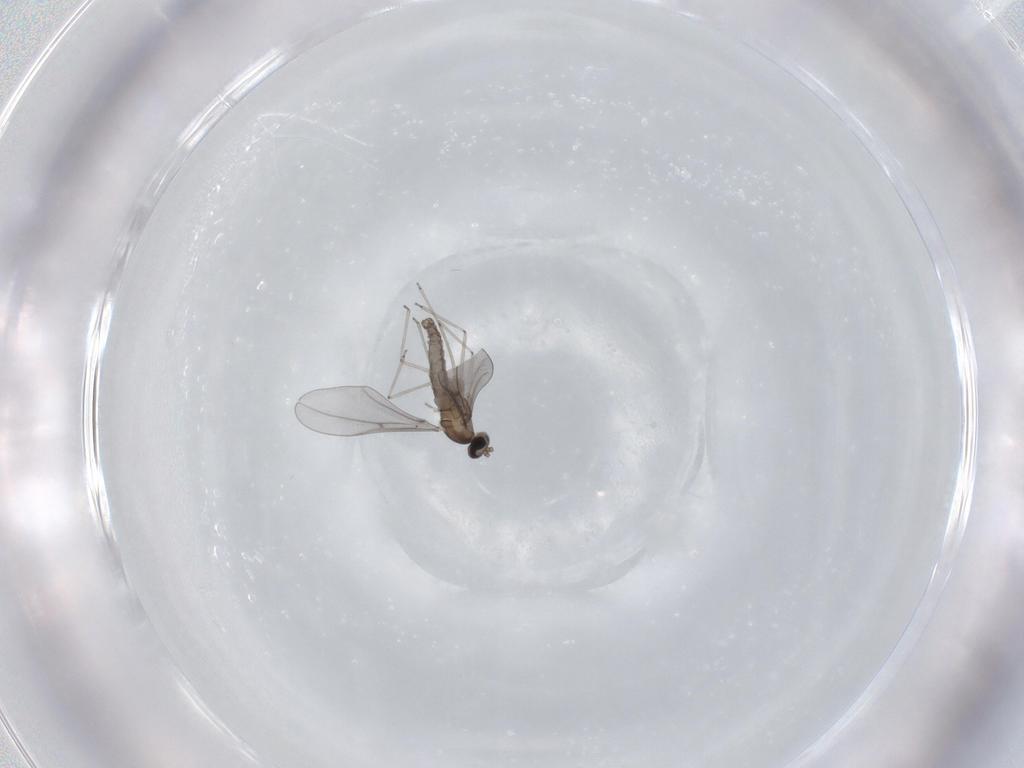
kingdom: Animalia
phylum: Arthropoda
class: Insecta
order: Diptera
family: Cecidomyiidae
